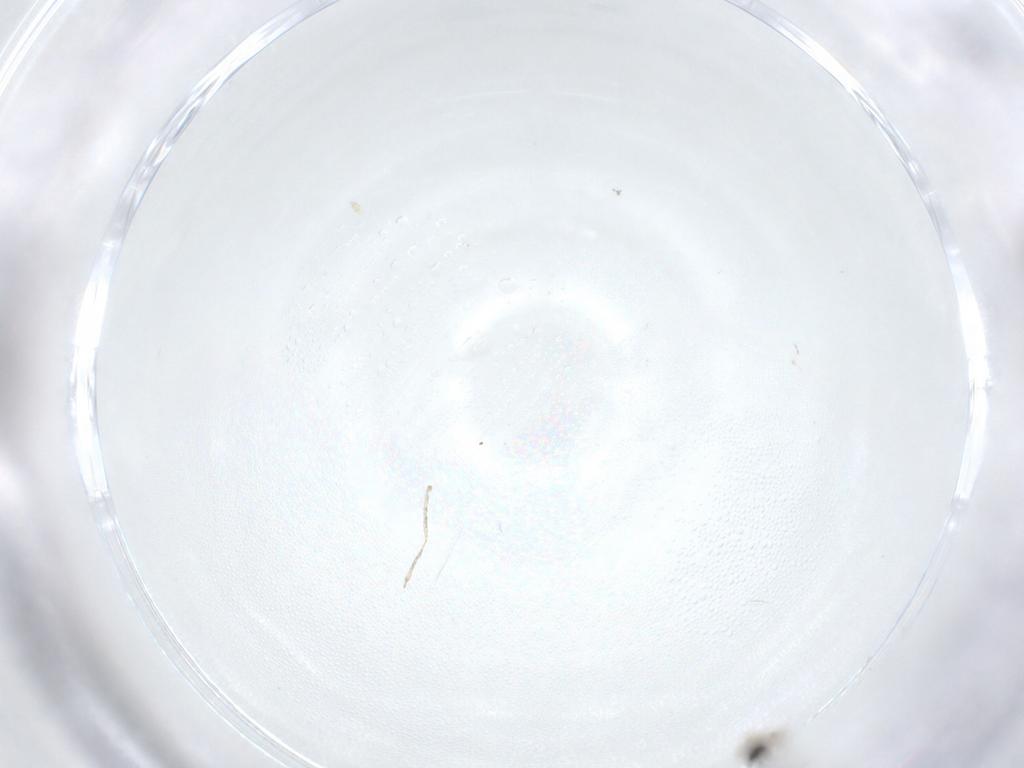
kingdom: Animalia
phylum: Arthropoda
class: Insecta
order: Diptera
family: Cecidomyiidae
